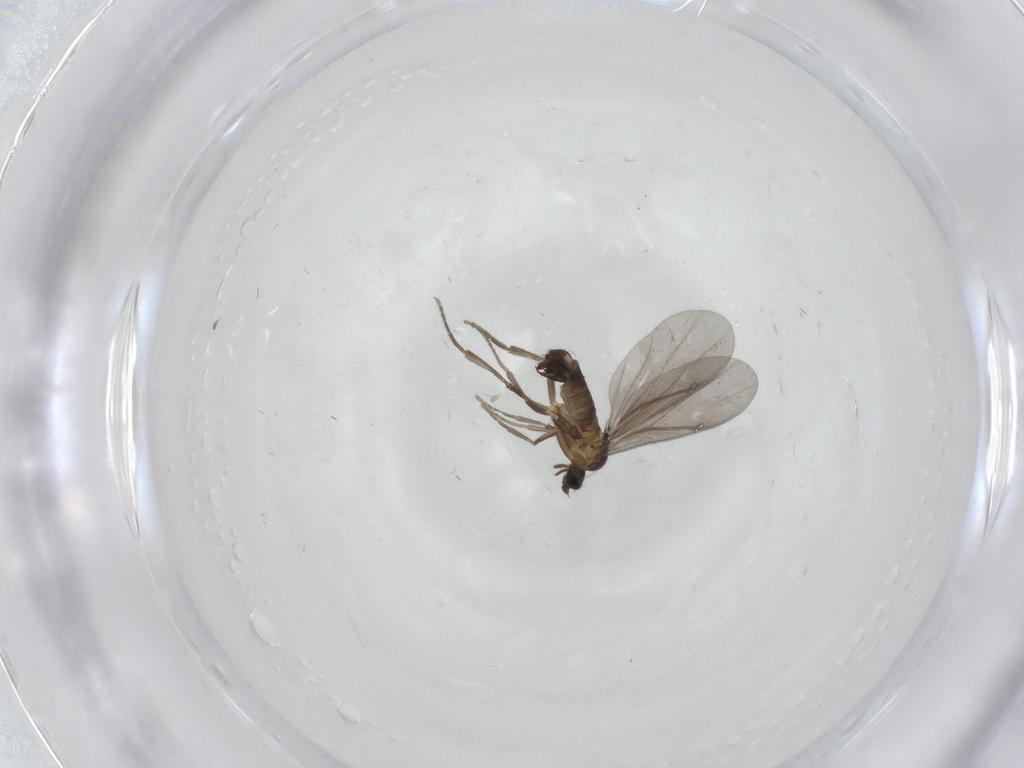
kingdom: Animalia
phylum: Arthropoda
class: Insecta
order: Diptera
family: Phoridae
